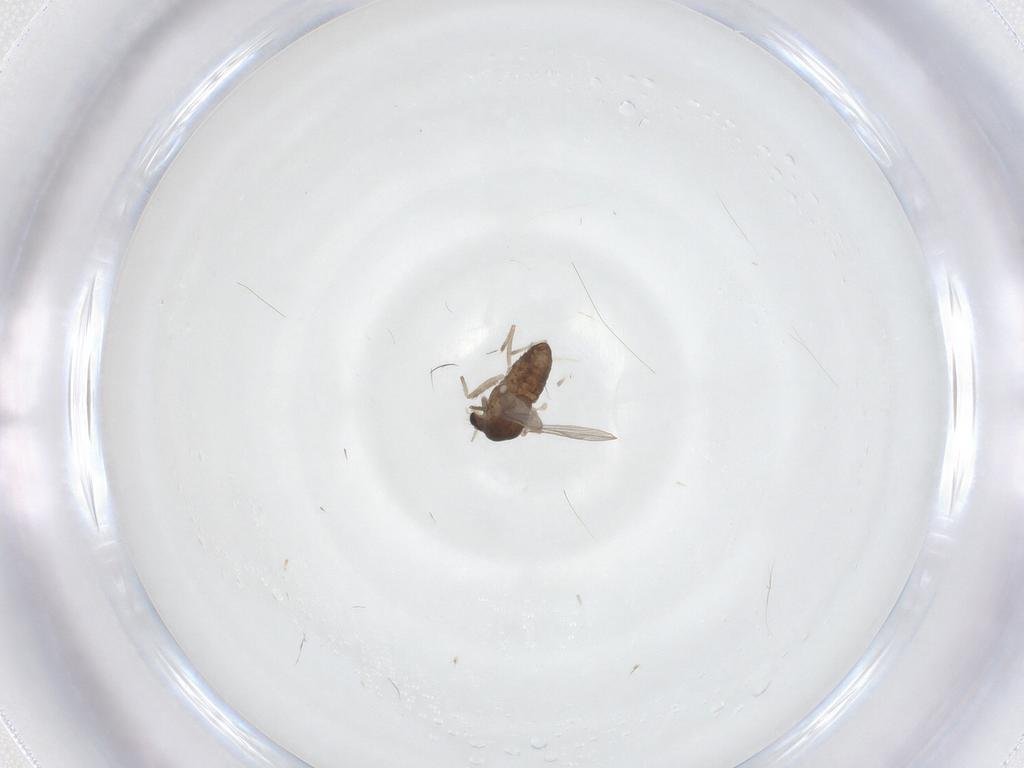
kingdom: Animalia
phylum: Arthropoda
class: Insecta
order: Diptera
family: Chironomidae
